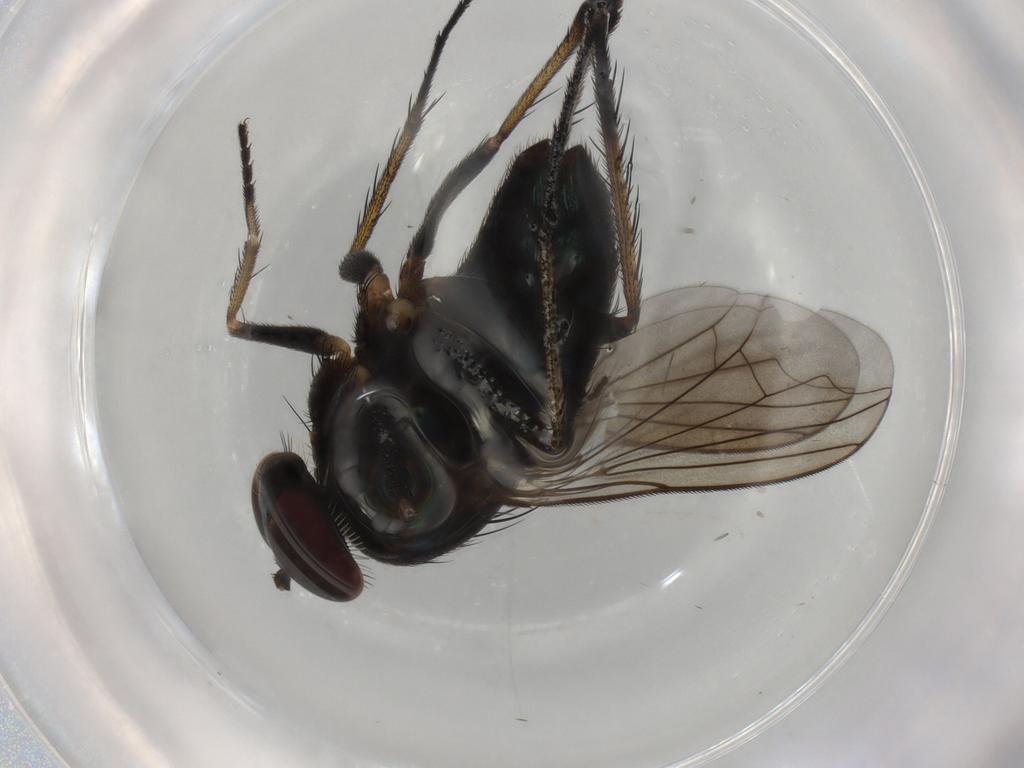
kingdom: Animalia
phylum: Arthropoda
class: Insecta
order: Diptera
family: Dolichopodidae
